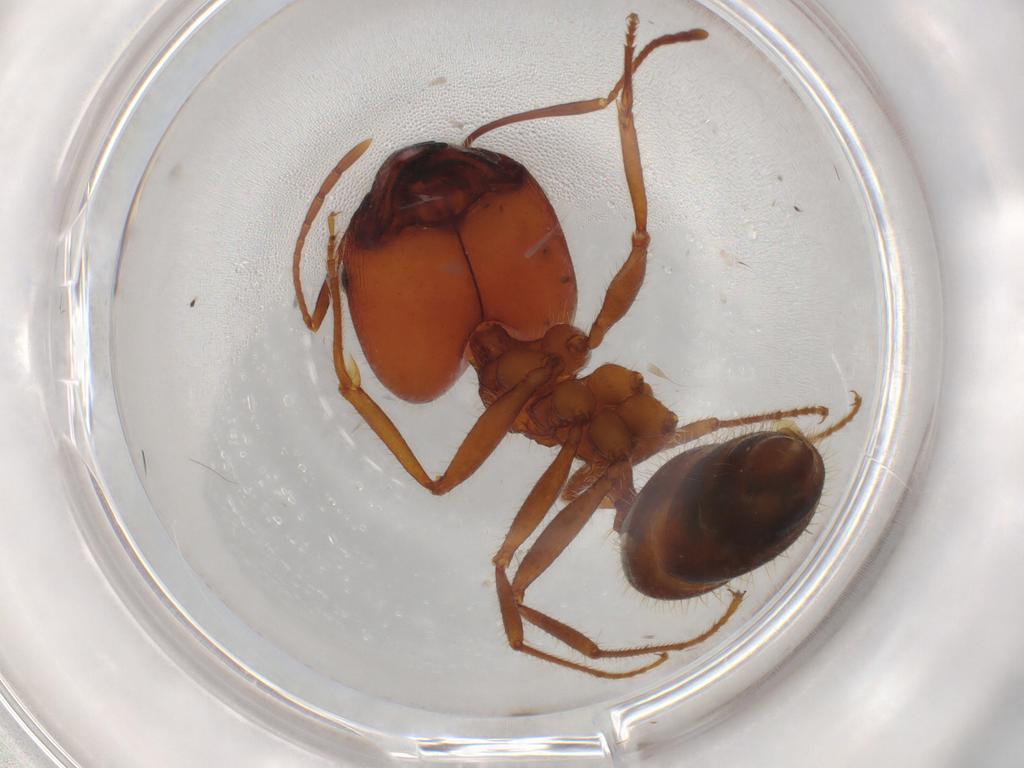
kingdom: Animalia
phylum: Arthropoda
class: Insecta
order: Hymenoptera
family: Formicidae
